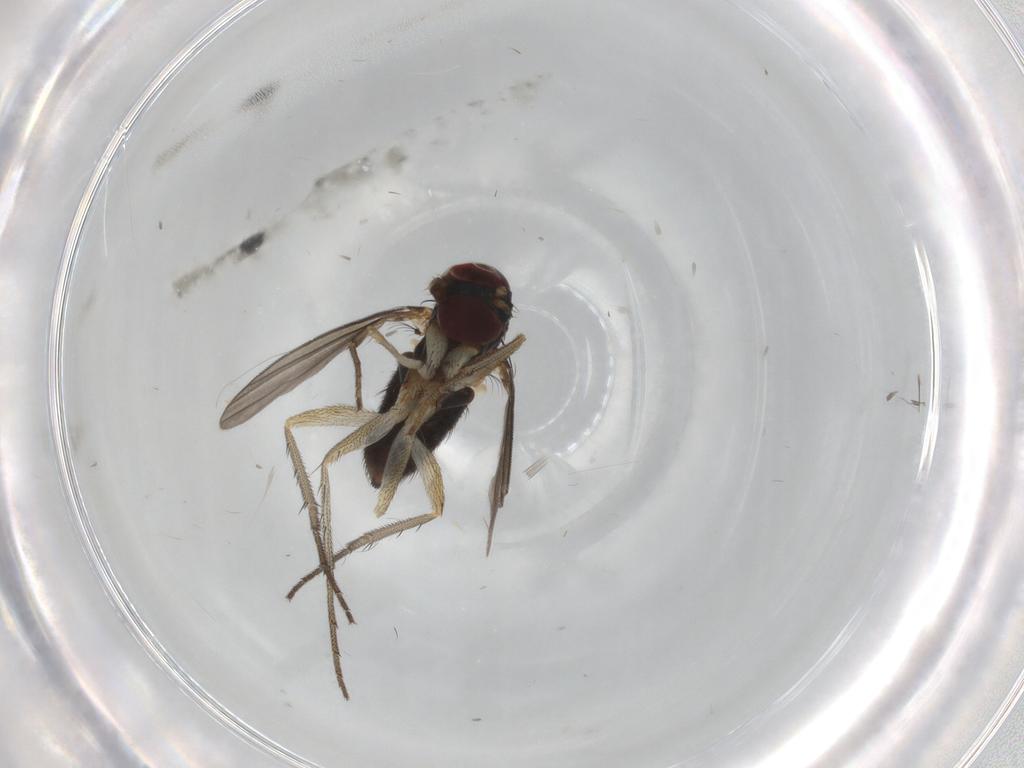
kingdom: Animalia
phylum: Arthropoda
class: Insecta
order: Diptera
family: Dolichopodidae
